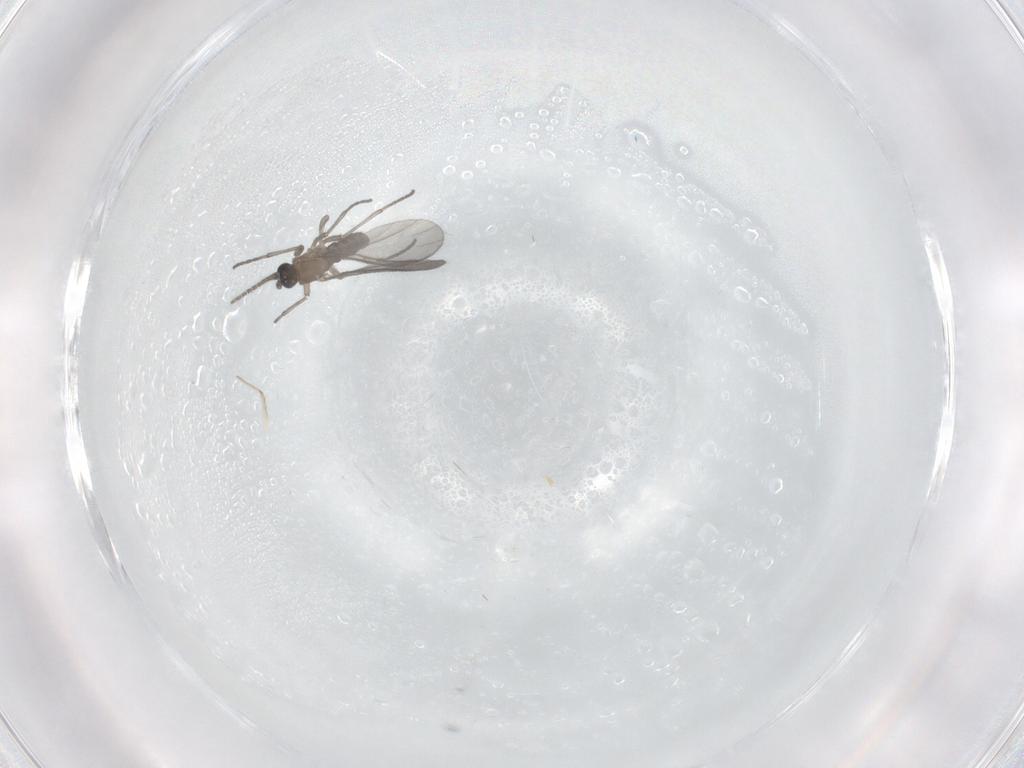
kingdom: Animalia
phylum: Arthropoda
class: Insecta
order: Diptera
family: Sciaridae
